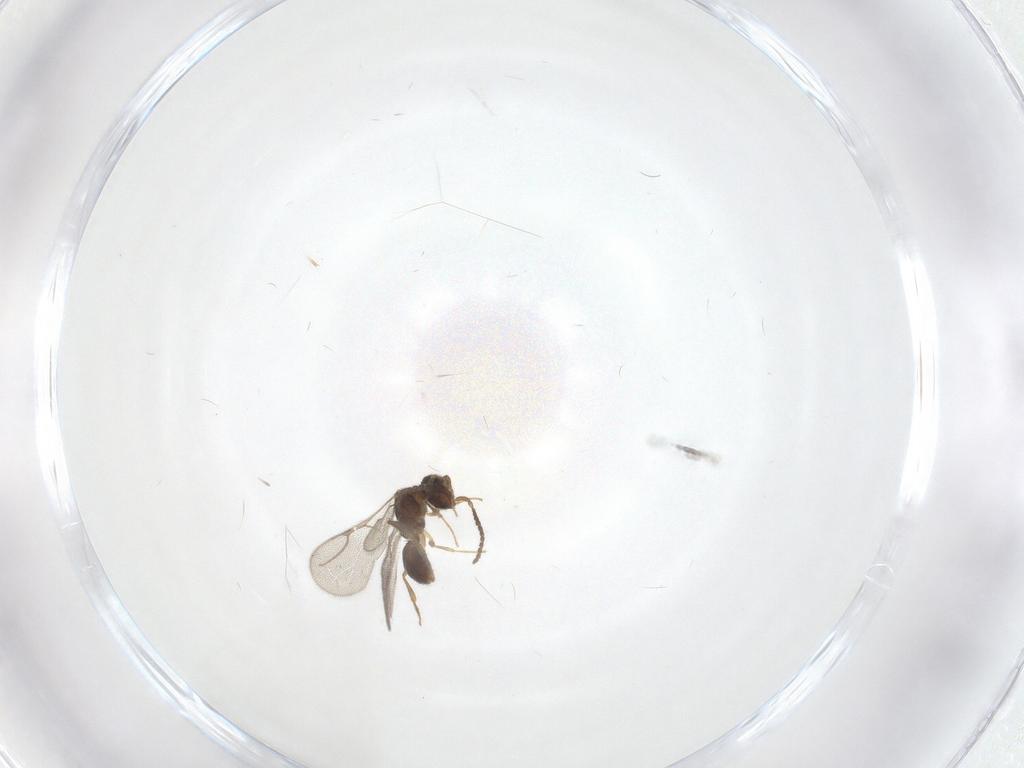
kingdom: Animalia
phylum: Arthropoda
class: Insecta
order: Hymenoptera
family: Bethylidae
